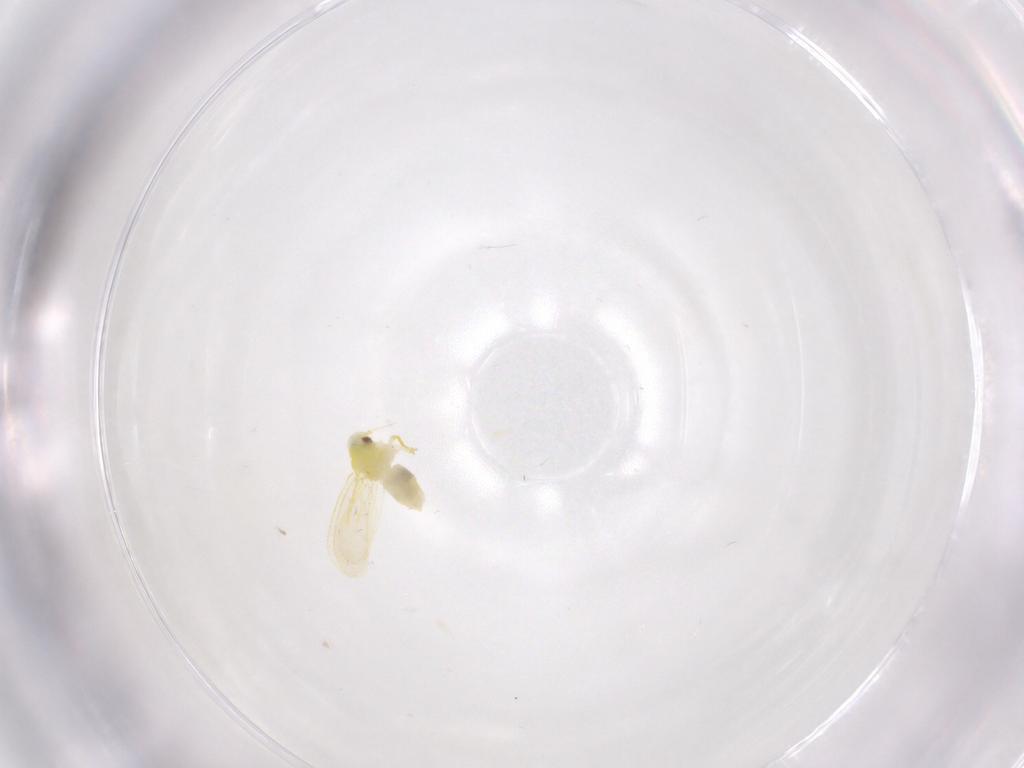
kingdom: Animalia
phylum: Arthropoda
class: Insecta
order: Hemiptera
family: Aleyrodidae
